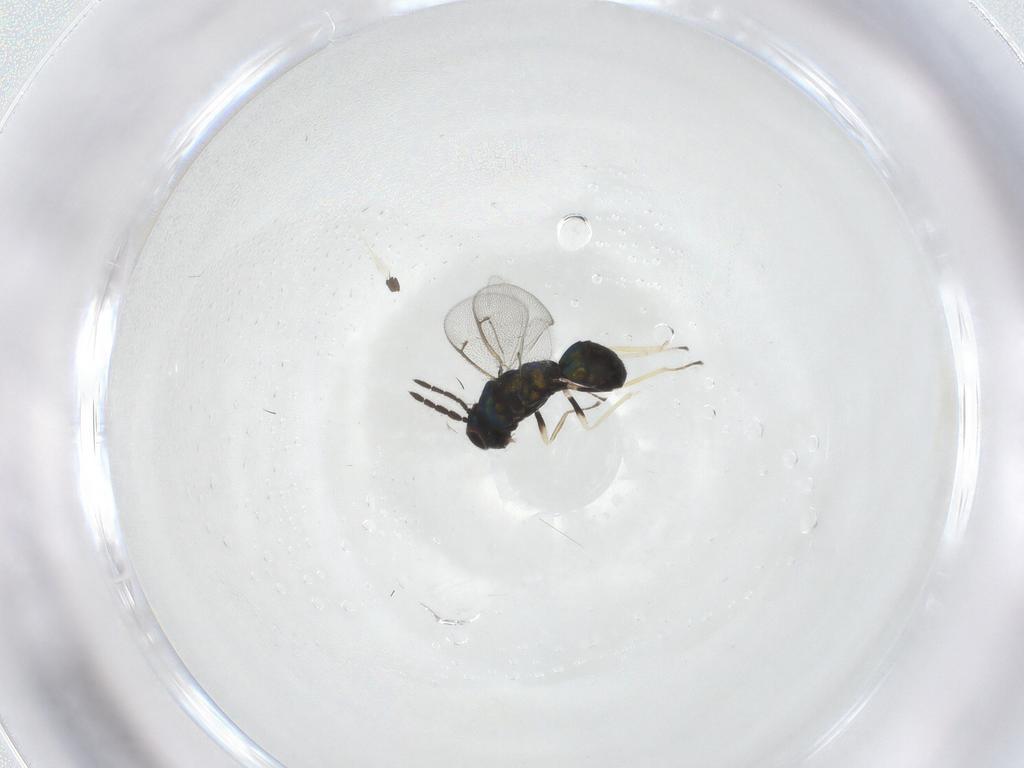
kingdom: Animalia
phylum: Arthropoda
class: Insecta
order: Hymenoptera
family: Eulophidae
